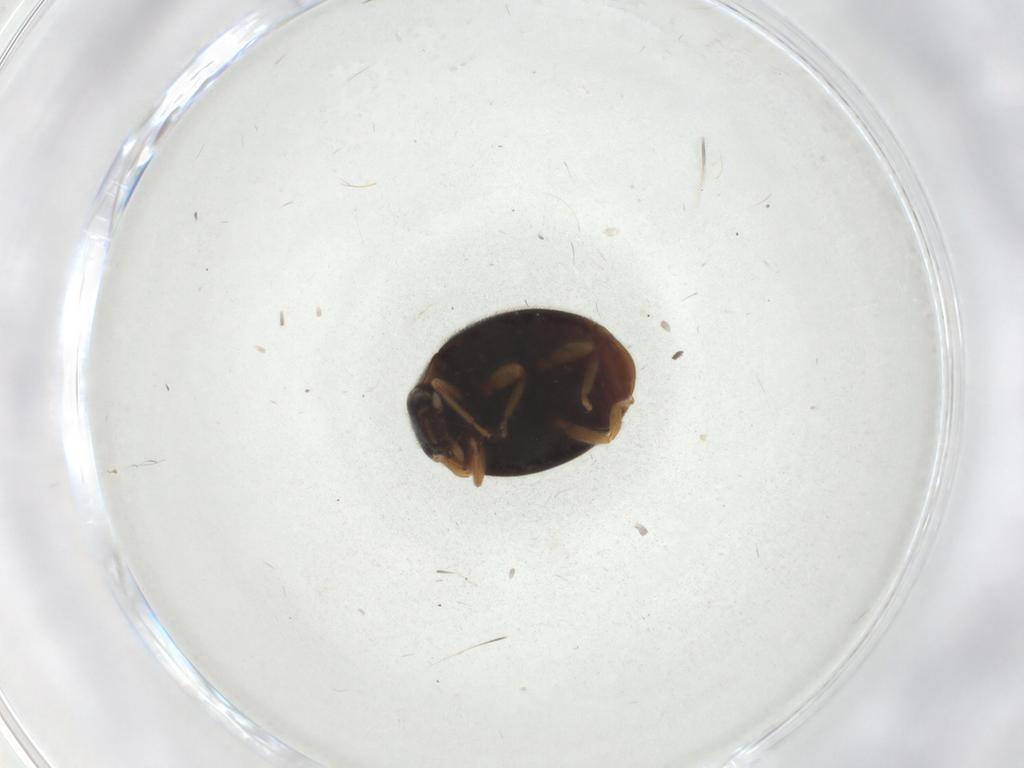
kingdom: Animalia
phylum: Arthropoda
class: Insecta
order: Coleoptera
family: Coccinellidae
